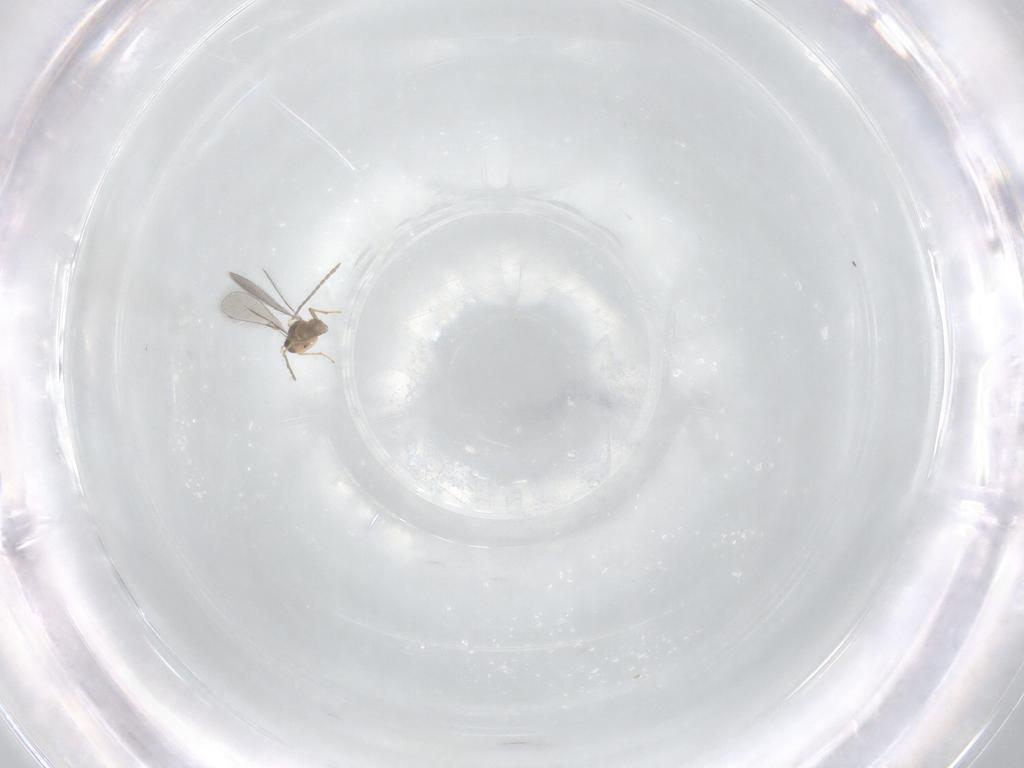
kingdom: Animalia
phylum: Arthropoda
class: Insecta
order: Hymenoptera
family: Mymaridae
